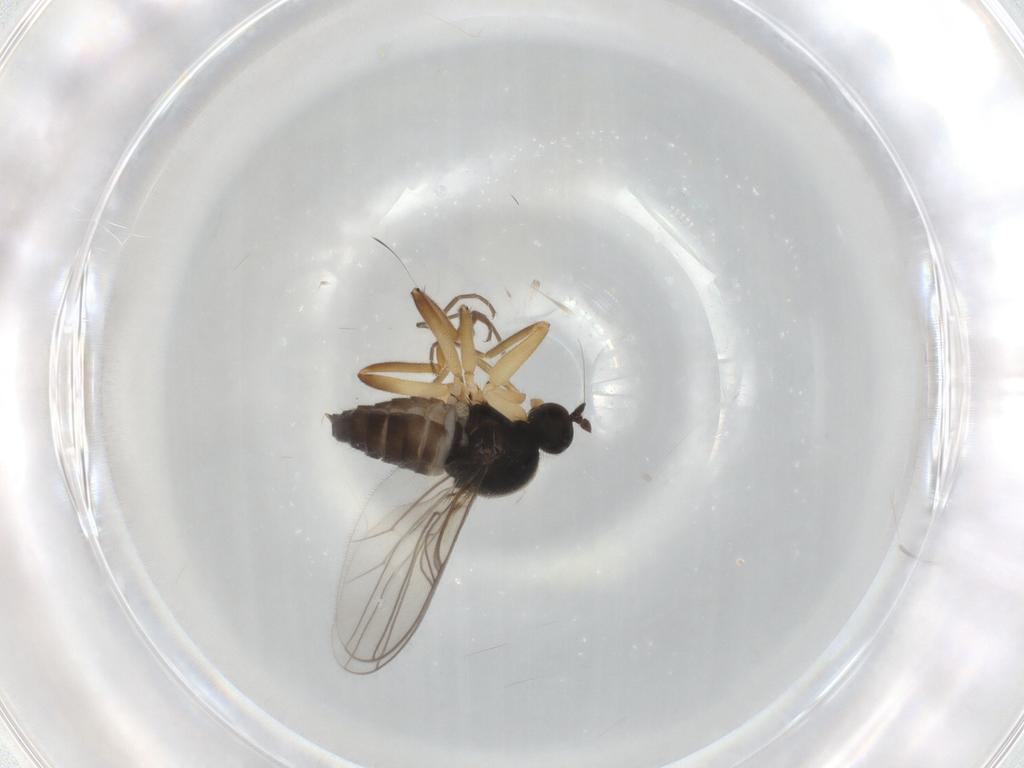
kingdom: Animalia
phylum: Arthropoda
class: Insecta
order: Diptera
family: Hybotidae
